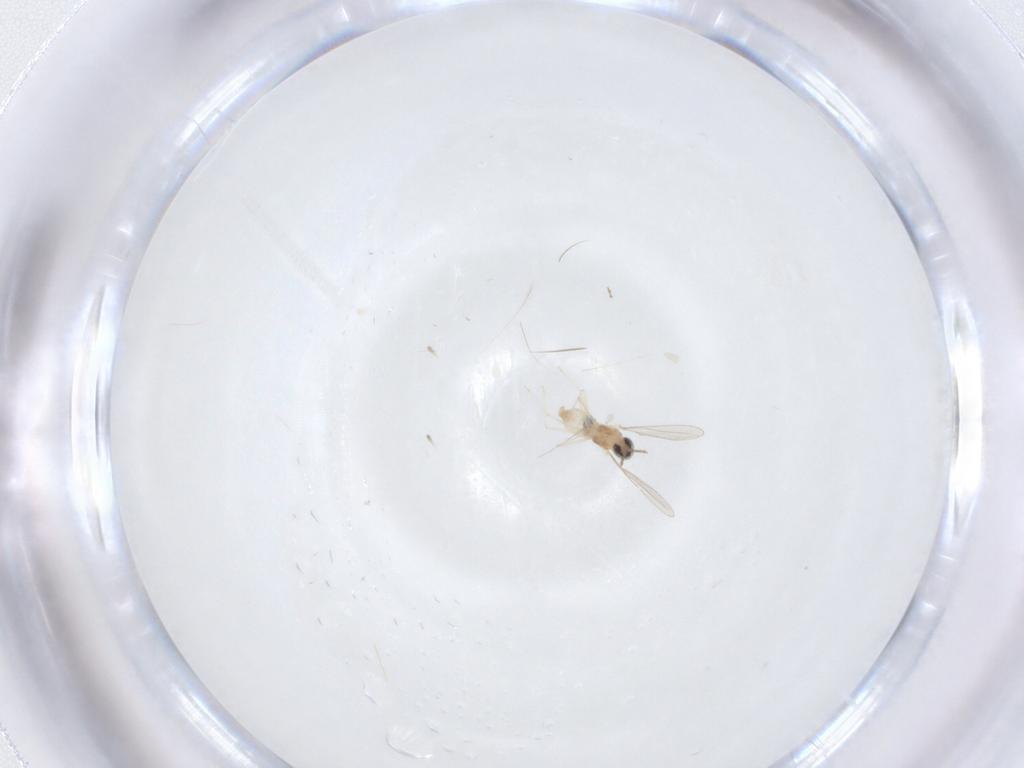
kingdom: Animalia
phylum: Arthropoda
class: Insecta
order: Diptera
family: Cecidomyiidae
